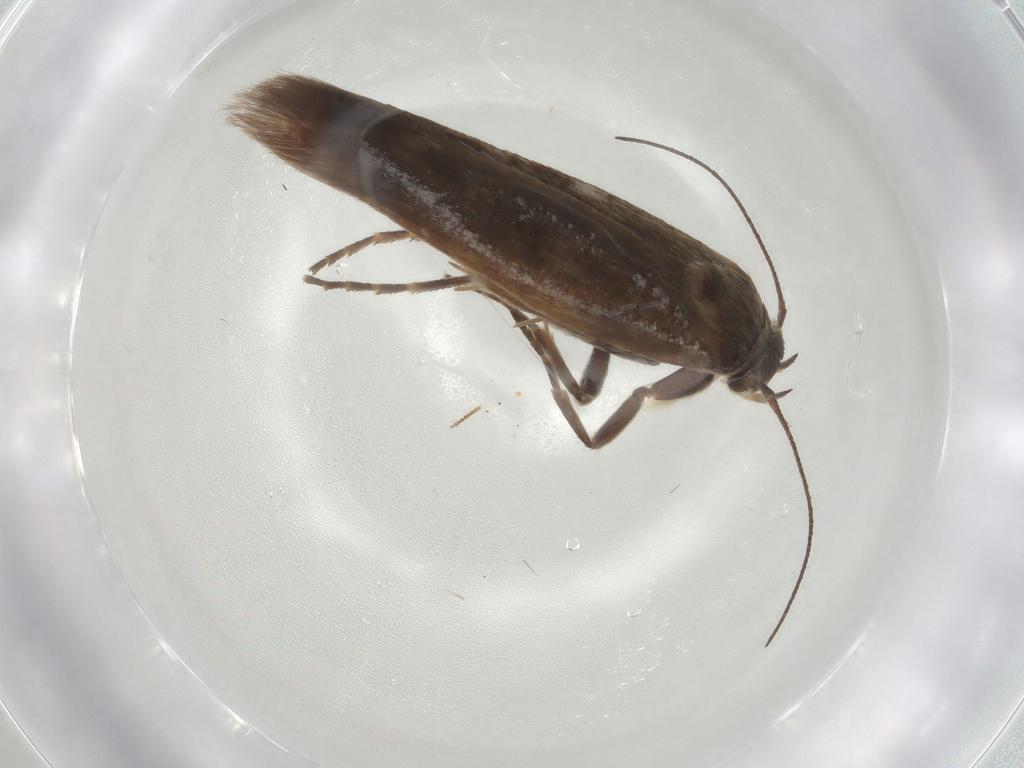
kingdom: Animalia
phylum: Arthropoda
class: Insecta
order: Lepidoptera
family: Scythrididae
